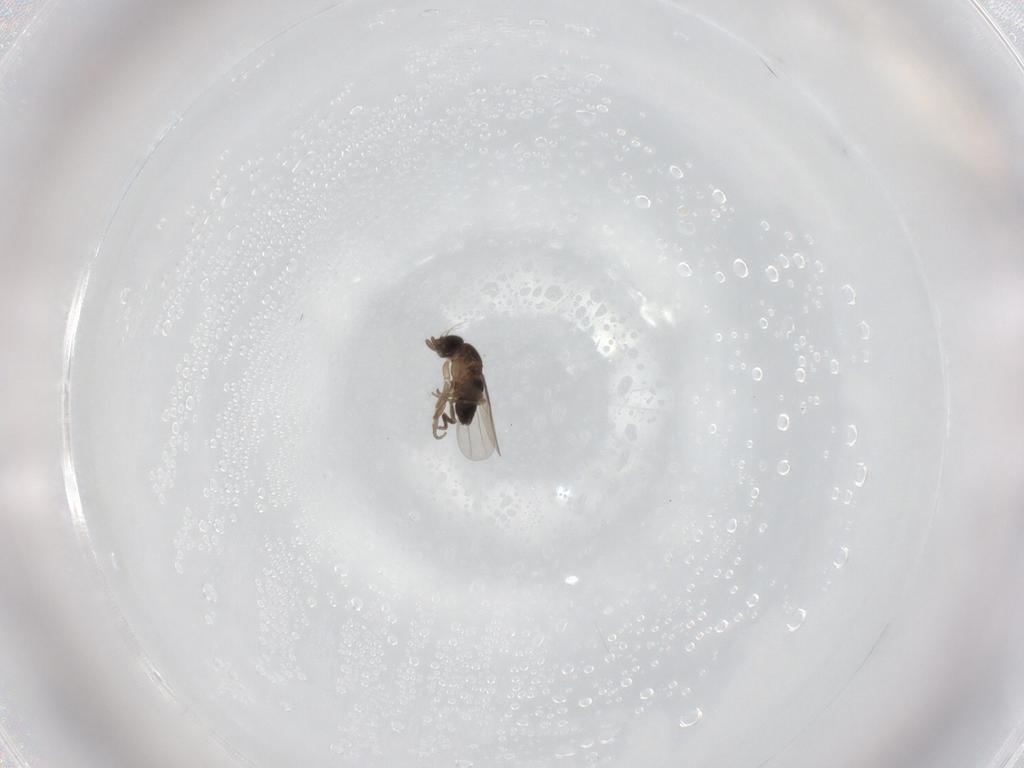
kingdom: Animalia
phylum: Arthropoda
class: Insecta
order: Diptera
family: Phoridae
